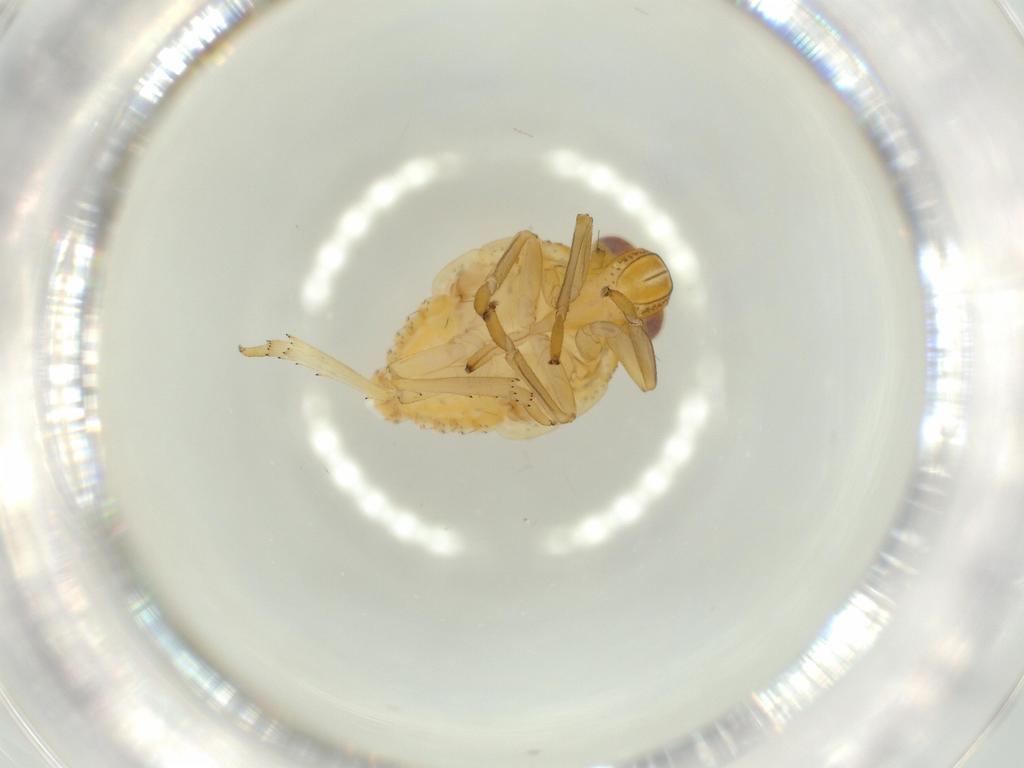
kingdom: Animalia
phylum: Arthropoda
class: Insecta
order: Hemiptera
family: Issidae
